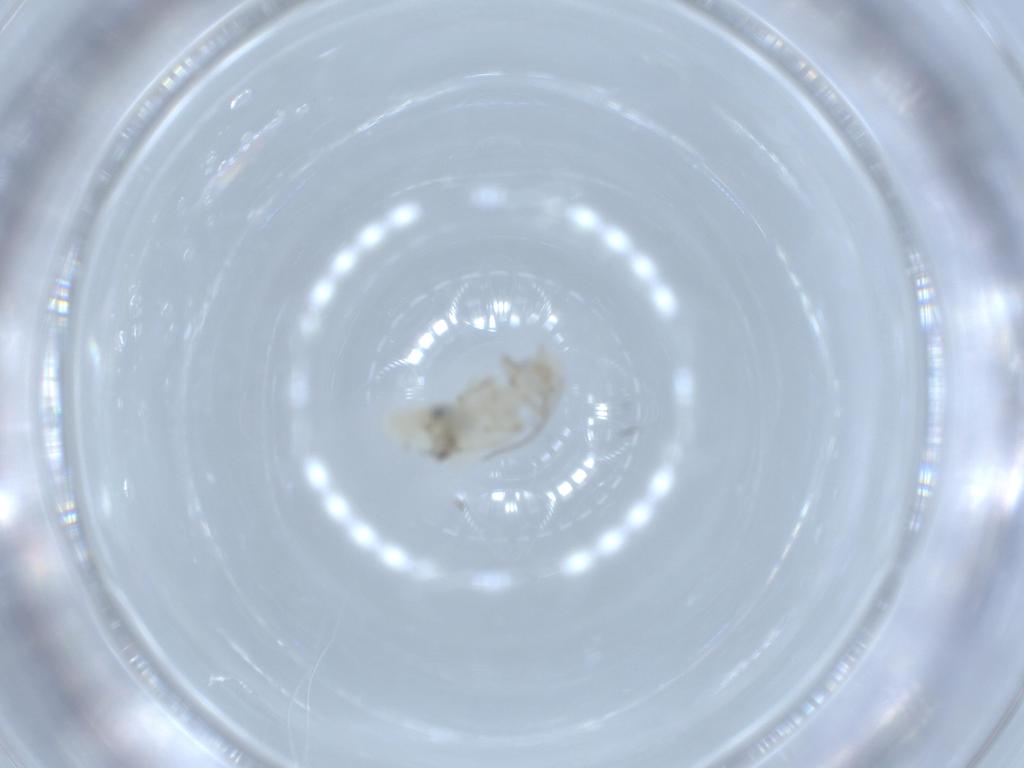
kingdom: Animalia
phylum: Arthropoda
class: Insecta
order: Psocodea
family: Caeciliusidae
